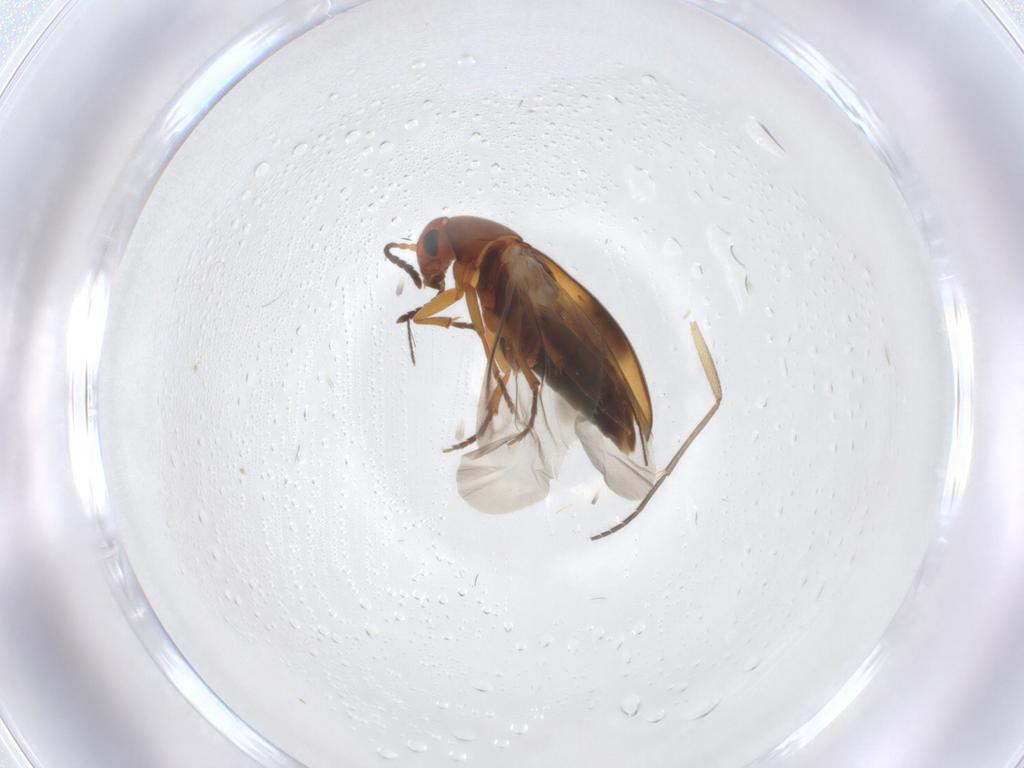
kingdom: Animalia
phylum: Arthropoda
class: Insecta
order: Coleoptera
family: Scraptiidae
